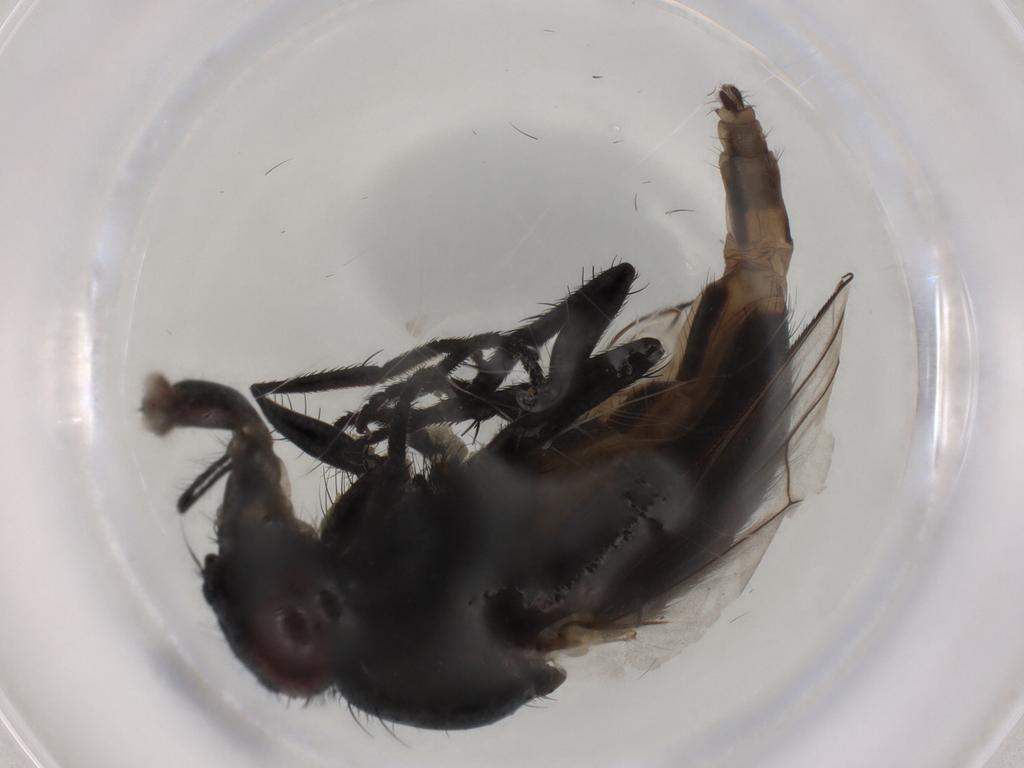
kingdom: Animalia
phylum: Arthropoda
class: Insecta
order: Diptera
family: Muscidae
